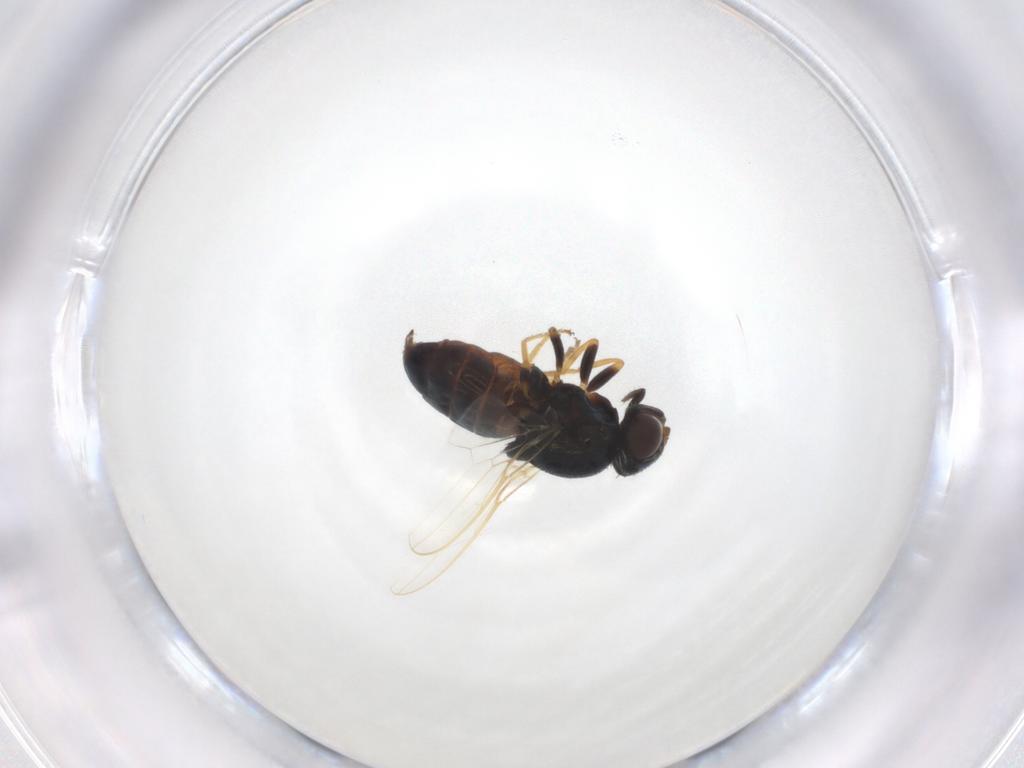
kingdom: Animalia
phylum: Arthropoda
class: Insecta
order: Diptera
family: Chloropidae
